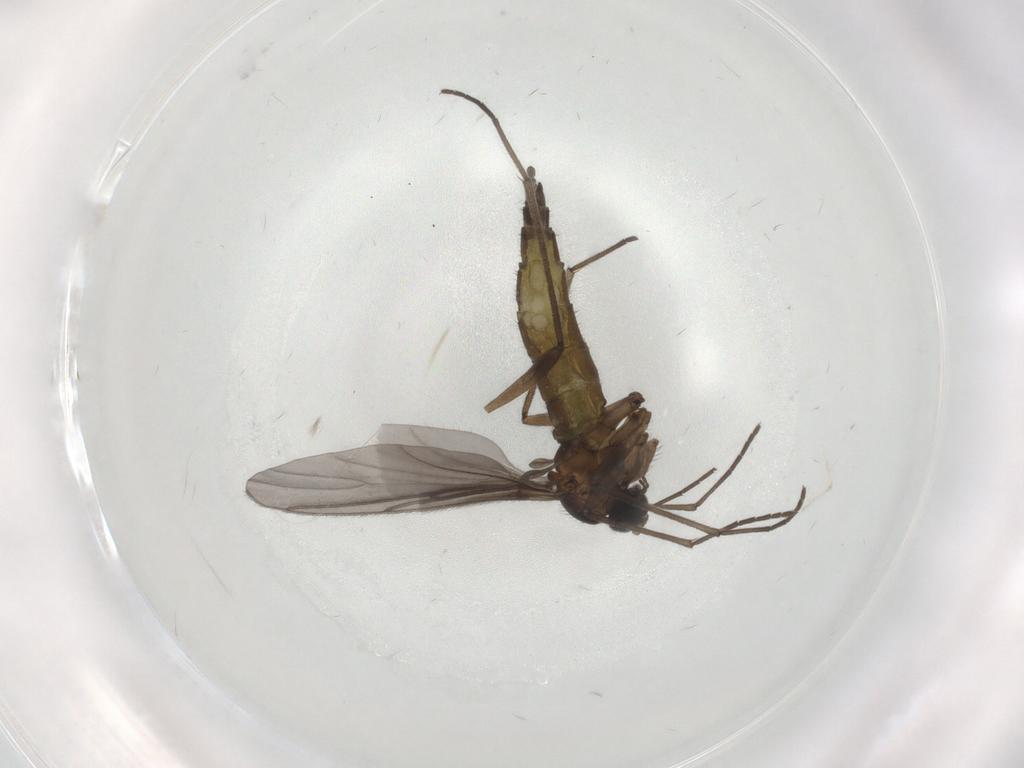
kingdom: Animalia
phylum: Arthropoda
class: Insecta
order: Diptera
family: Sciaridae
